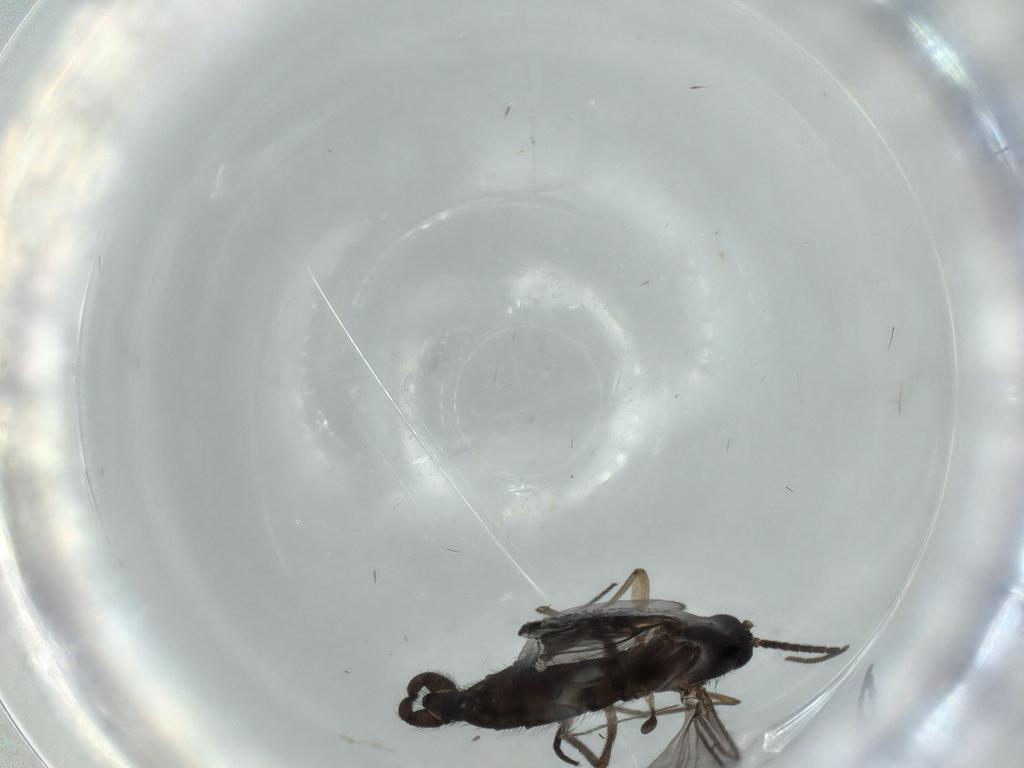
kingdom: Animalia
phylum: Arthropoda
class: Insecta
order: Diptera
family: Sciaridae
